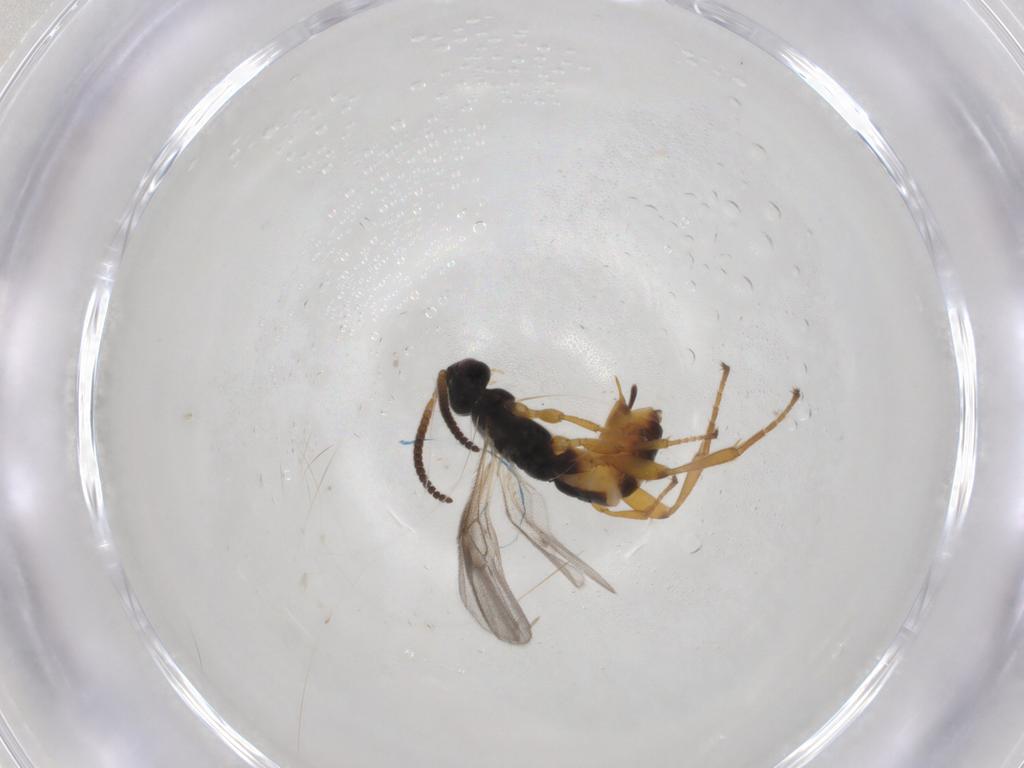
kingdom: Animalia
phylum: Arthropoda
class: Insecta
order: Hymenoptera
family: Braconidae
